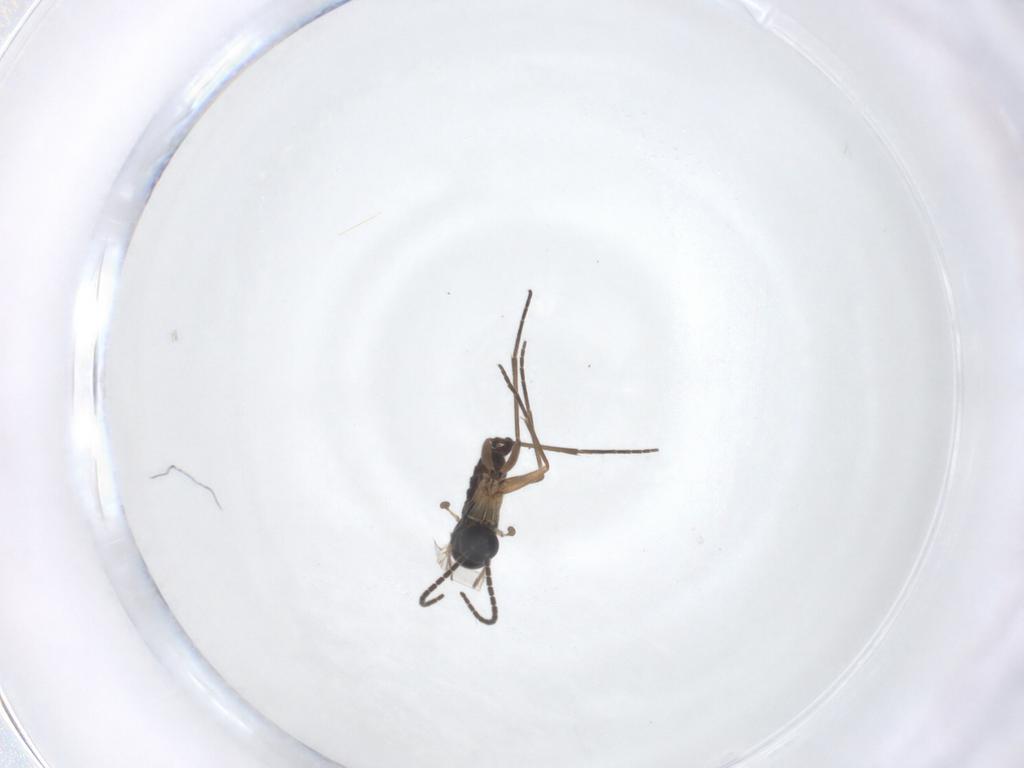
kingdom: Animalia
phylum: Arthropoda
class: Insecta
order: Diptera
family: Sciaridae
